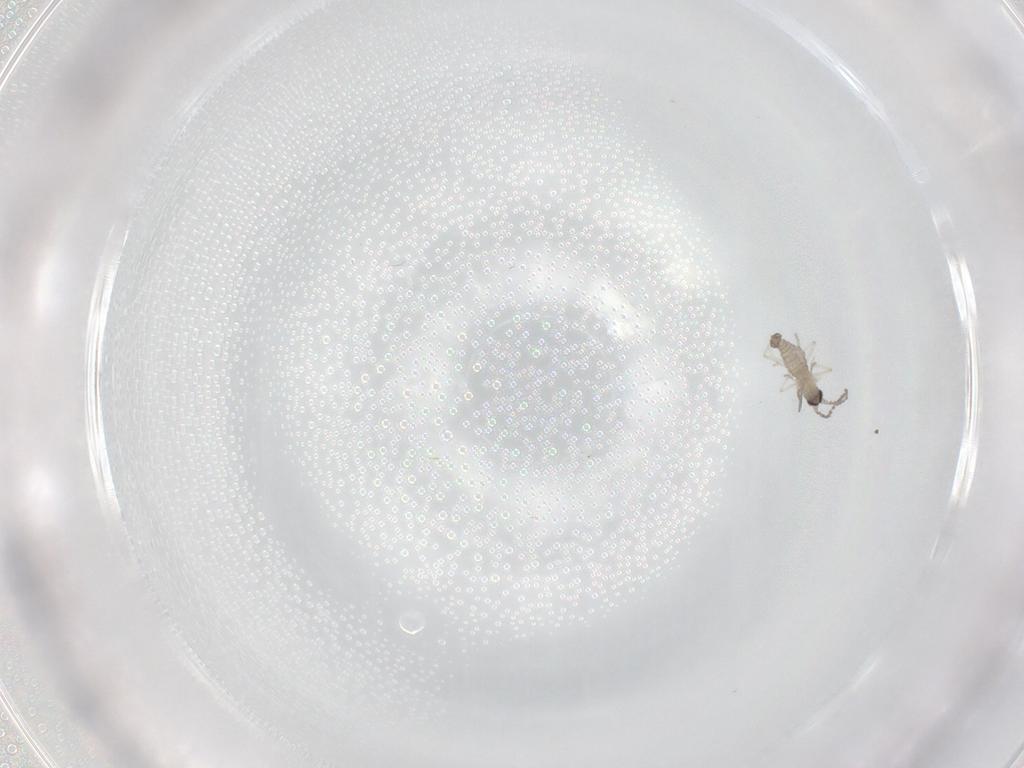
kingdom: Animalia
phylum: Arthropoda
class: Insecta
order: Diptera
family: Cecidomyiidae
